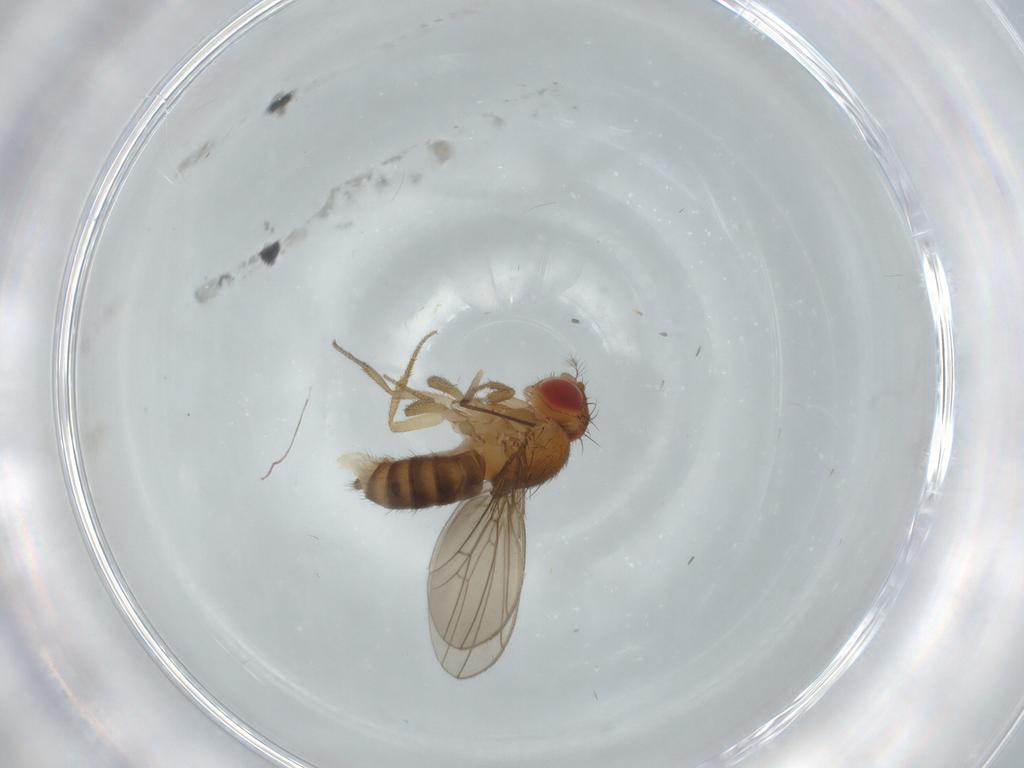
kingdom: Animalia
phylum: Arthropoda
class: Insecta
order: Diptera
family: Drosophilidae
